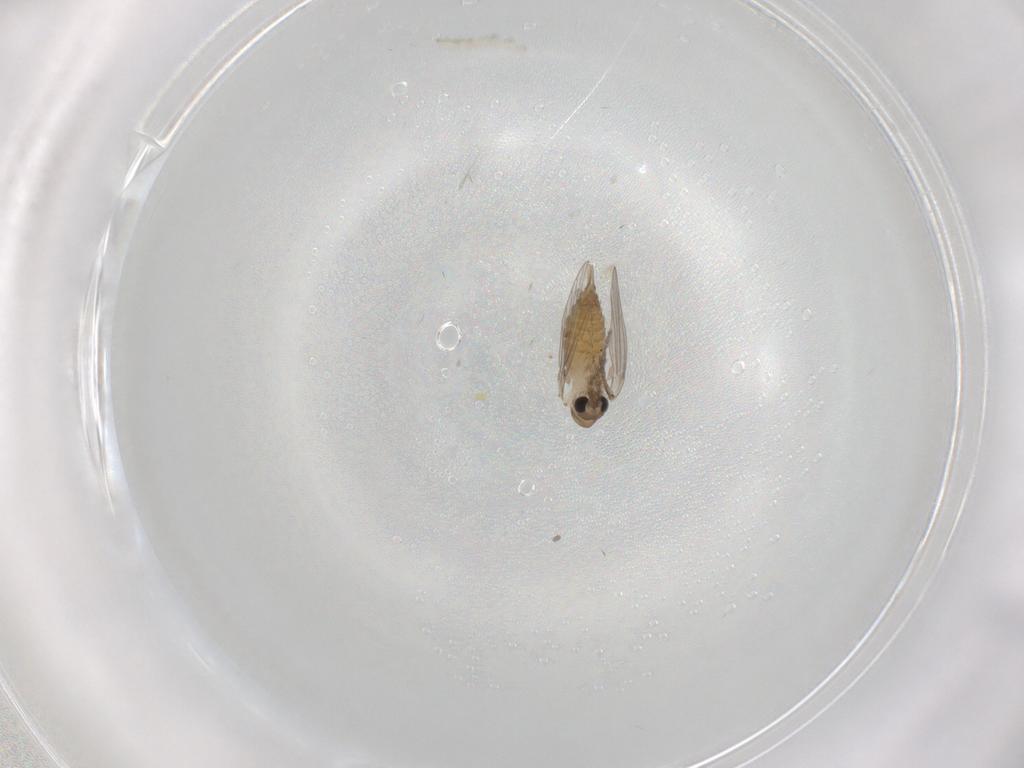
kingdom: Animalia
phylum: Arthropoda
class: Insecta
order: Diptera
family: Chironomidae
